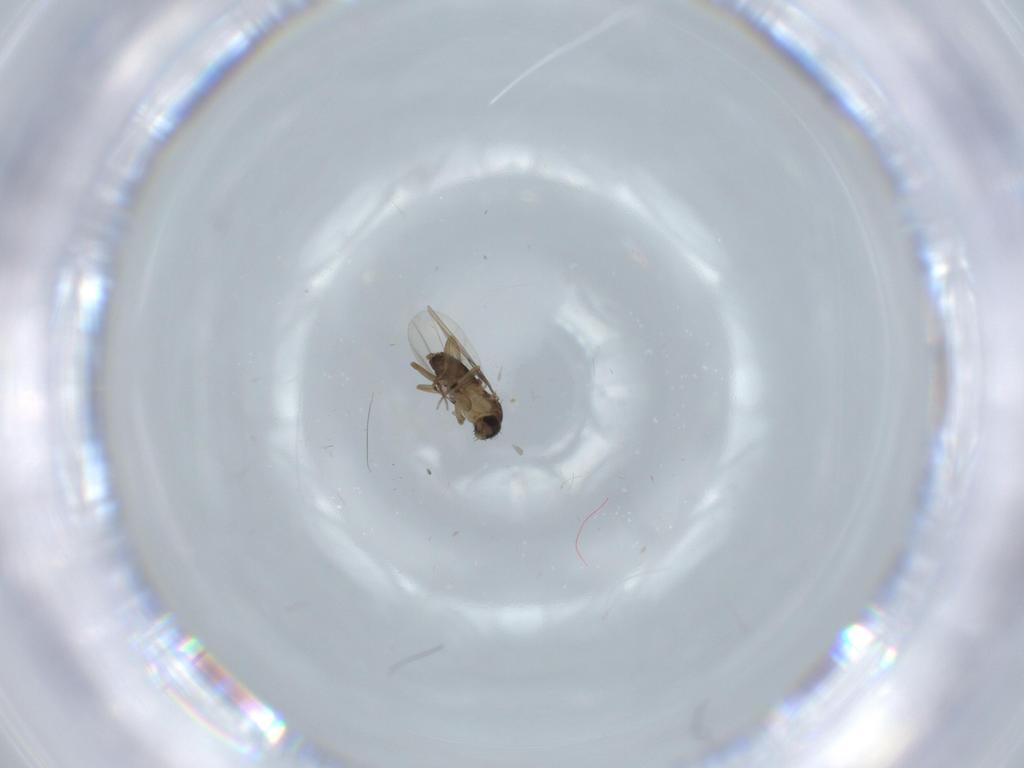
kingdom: Animalia
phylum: Arthropoda
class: Insecta
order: Diptera
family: Phoridae
